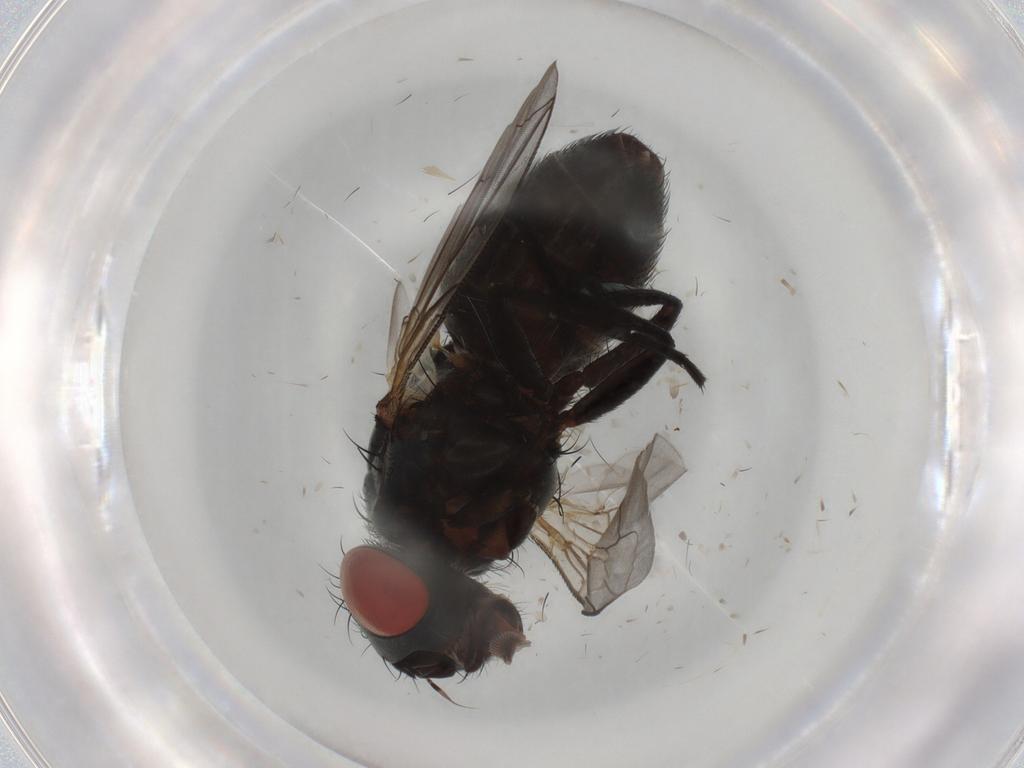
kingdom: Animalia
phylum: Arthropoda
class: Insecta
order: Diptera
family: Sarcophagidae
